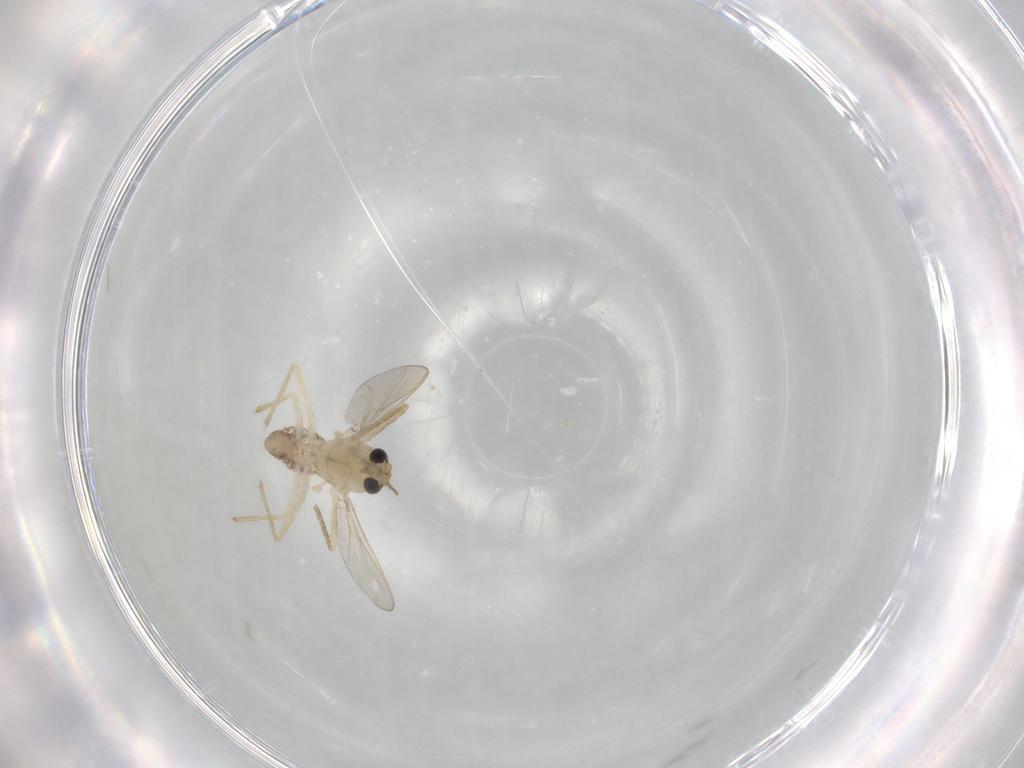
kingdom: Animalia
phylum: Arthropoda
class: Insecta
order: Diptera
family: Chironomidae
